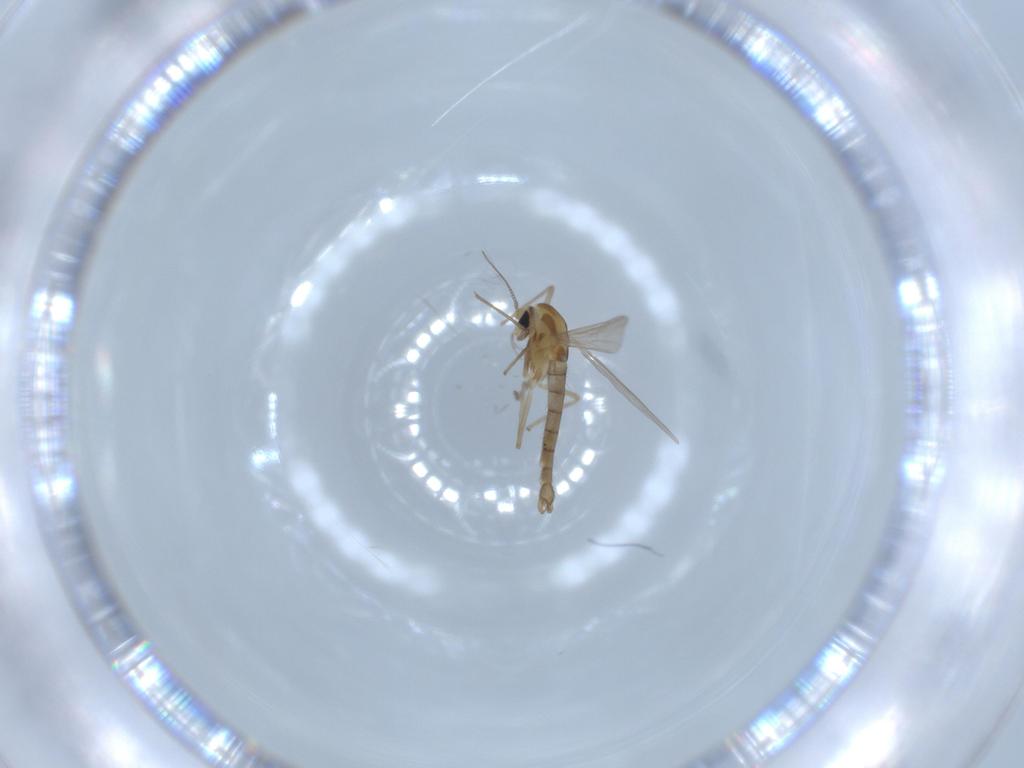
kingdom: Animalia
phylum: Arthropoda
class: Insecta
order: Diptera
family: Chironomidae
